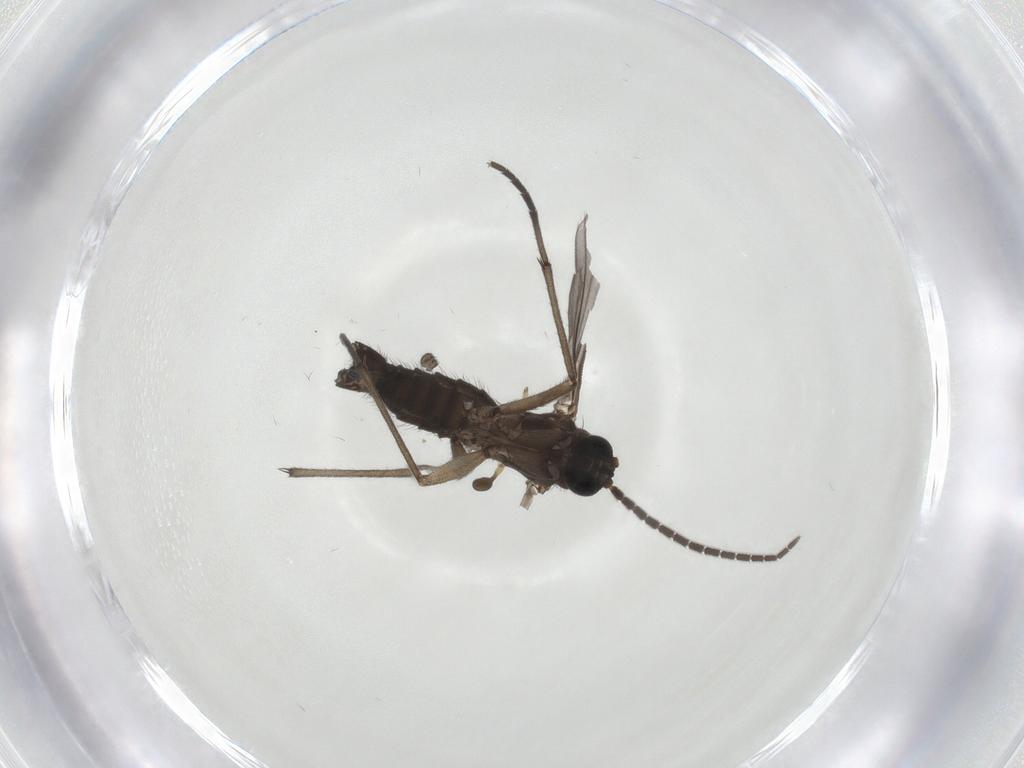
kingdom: Animalia
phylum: Arthropoda
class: Insecta
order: Diptera
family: Sciaridae
